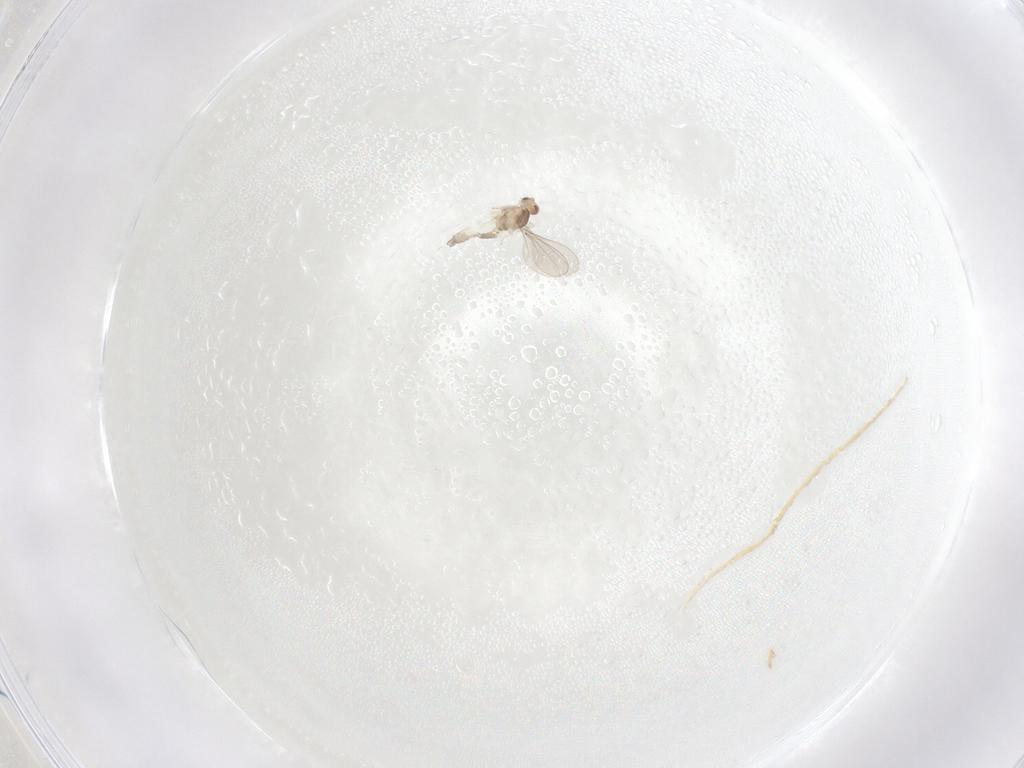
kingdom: Animalia
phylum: Arthropoda
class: Insecta
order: Diptera
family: Cecidomyiidae
